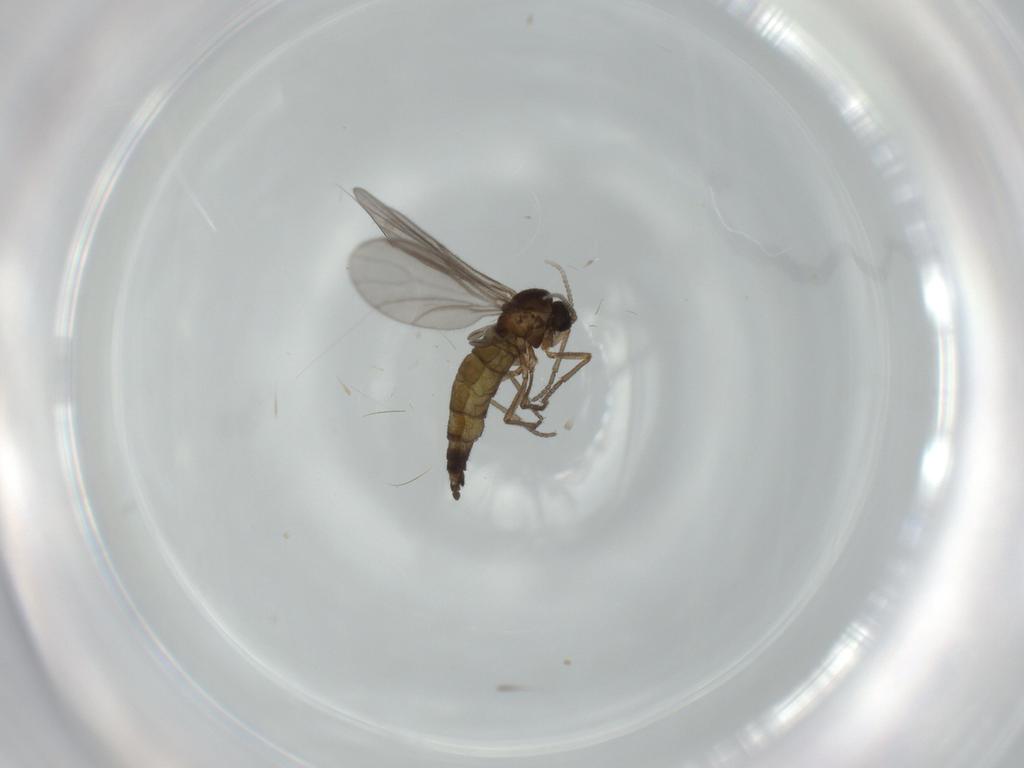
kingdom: Animalia
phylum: Arthropoda
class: Insecta
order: Diptera
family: Sciaridae
